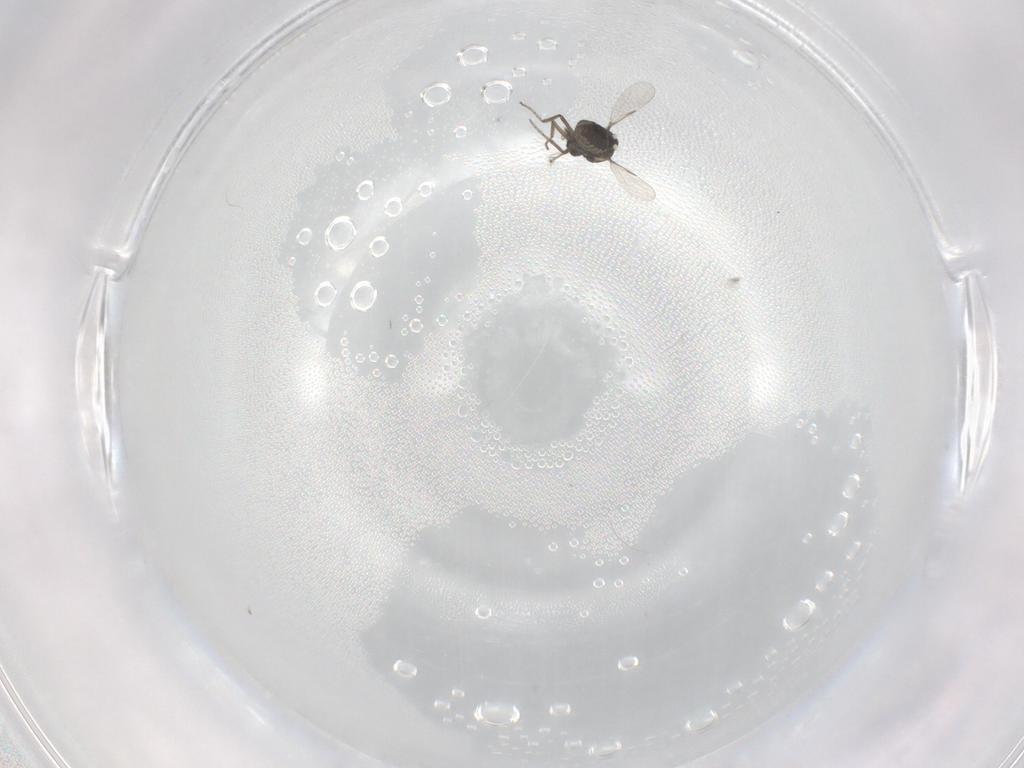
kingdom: Animalia
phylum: Arthropoda
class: Insecta
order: Diptera
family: Ceratopogonidae
